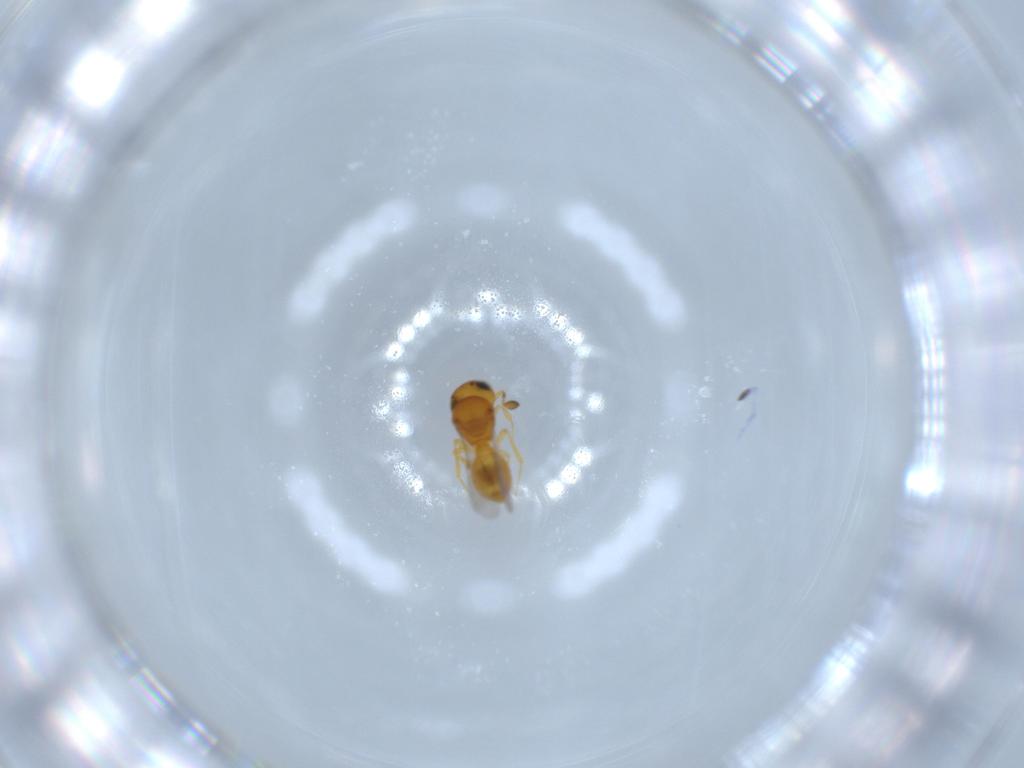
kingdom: Animalia
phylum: Arthropoda
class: Insecta
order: Hymenoptera
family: Scelionidae
